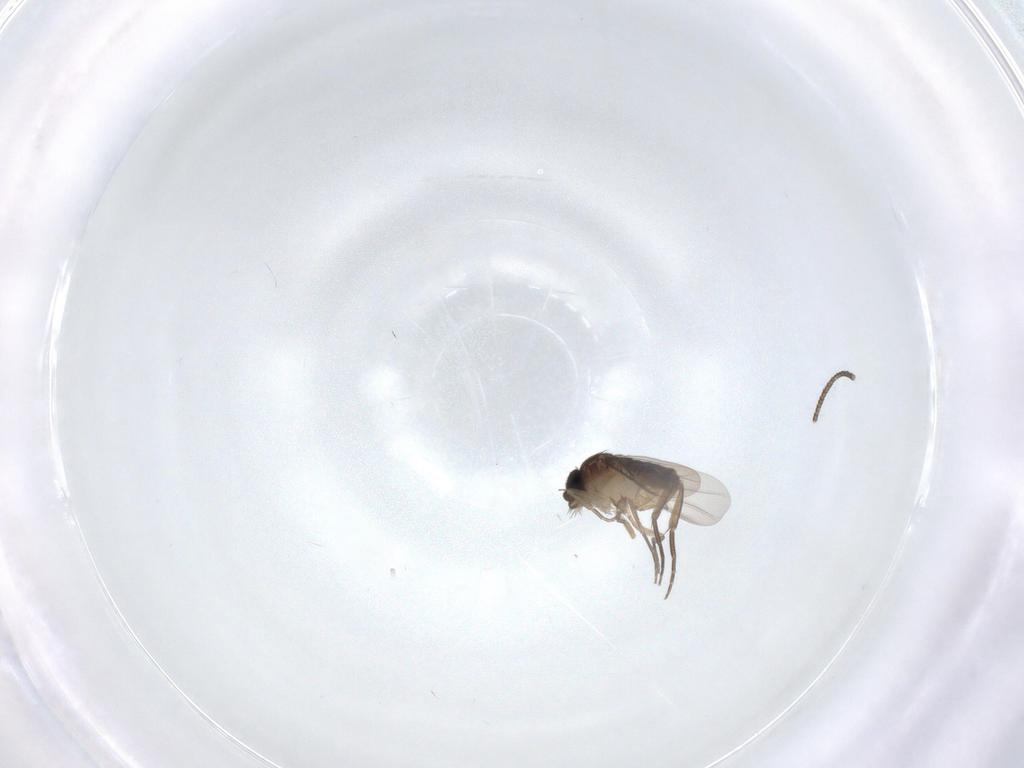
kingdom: Animalia
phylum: Arthropoda
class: Insecta
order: Diptera
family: Phoridae
